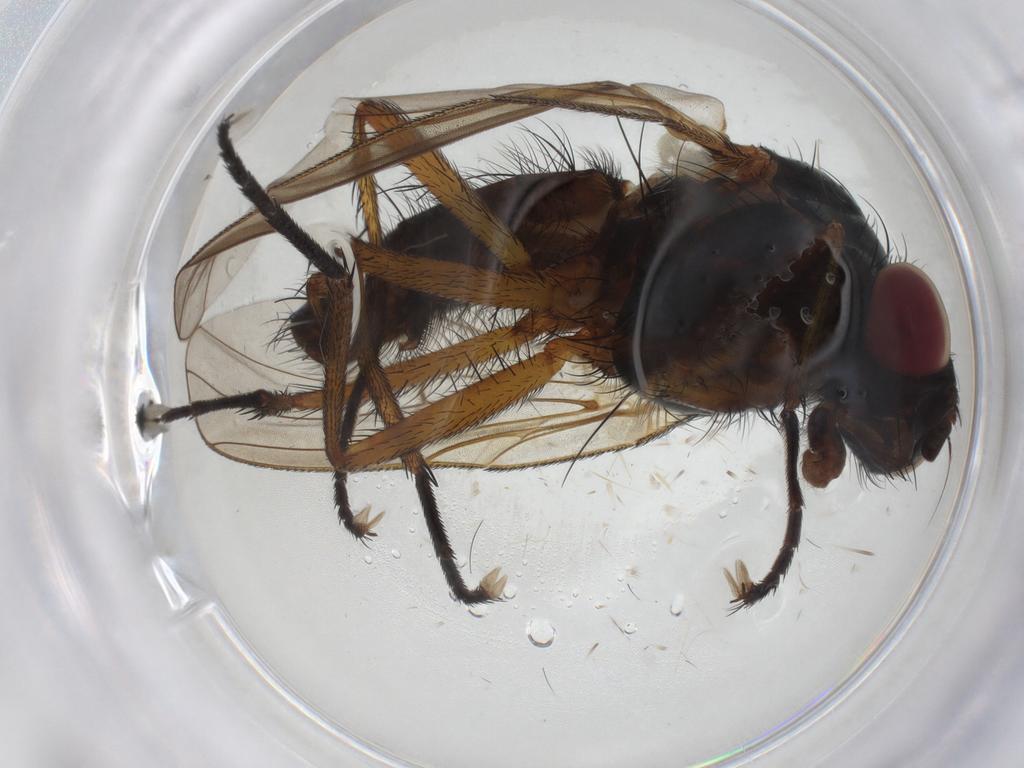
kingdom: Animalia
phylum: Arthropoda
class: Insecta
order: Diptera
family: Anthomyiidae
